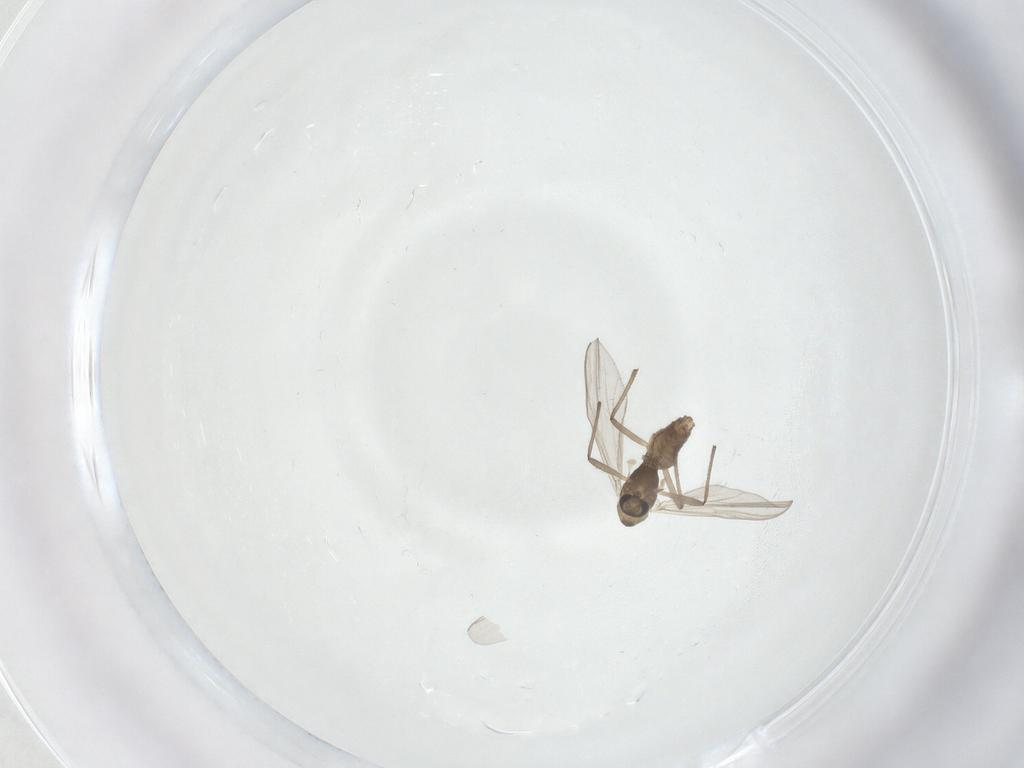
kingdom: Animalia
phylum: Arthropoda
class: Insecta
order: Diptera
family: Chironomidae
